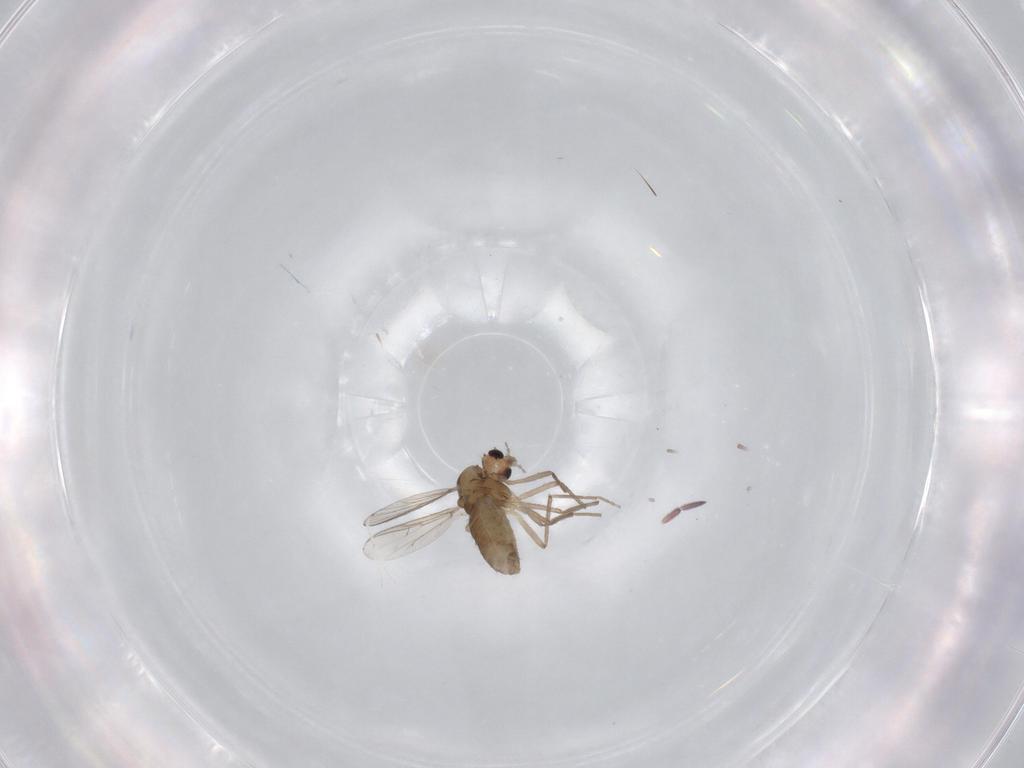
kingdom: Animalia
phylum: Arthropoda
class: Insecta
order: Diptera
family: Chironomidae
